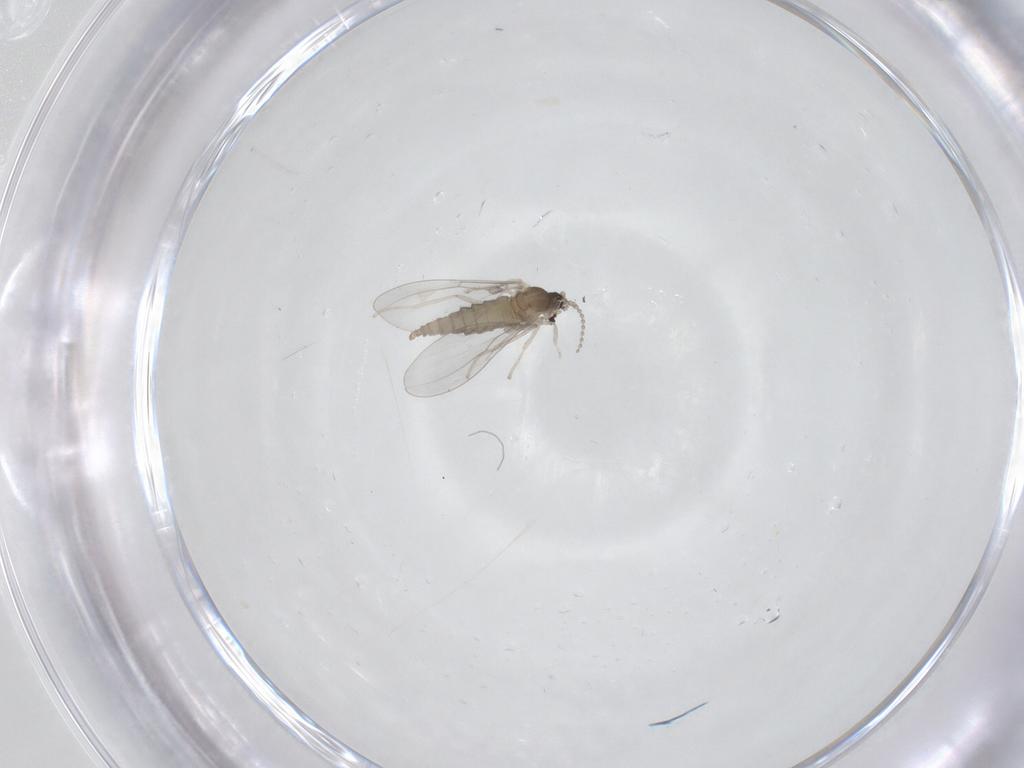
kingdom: Animalia
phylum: Arthropoda
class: Insecta
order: Diptera
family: Cecidomyiidae
